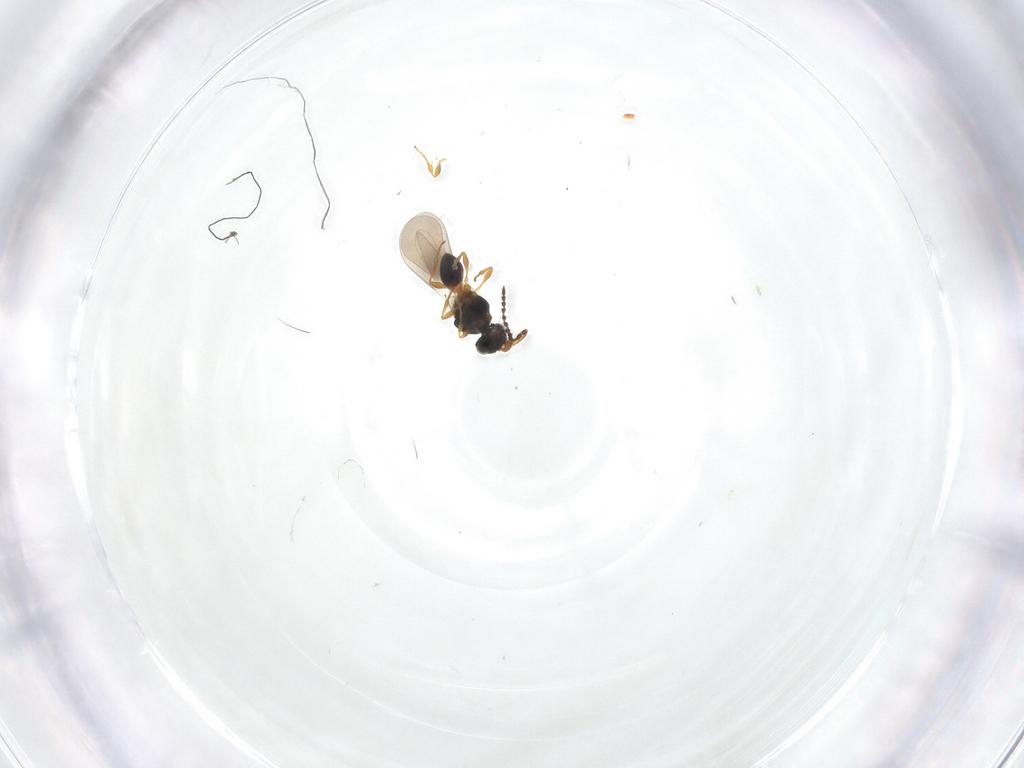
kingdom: Animalia
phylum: Arthropoda
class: Insecta
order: Hymenoptera
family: Platygastridae
